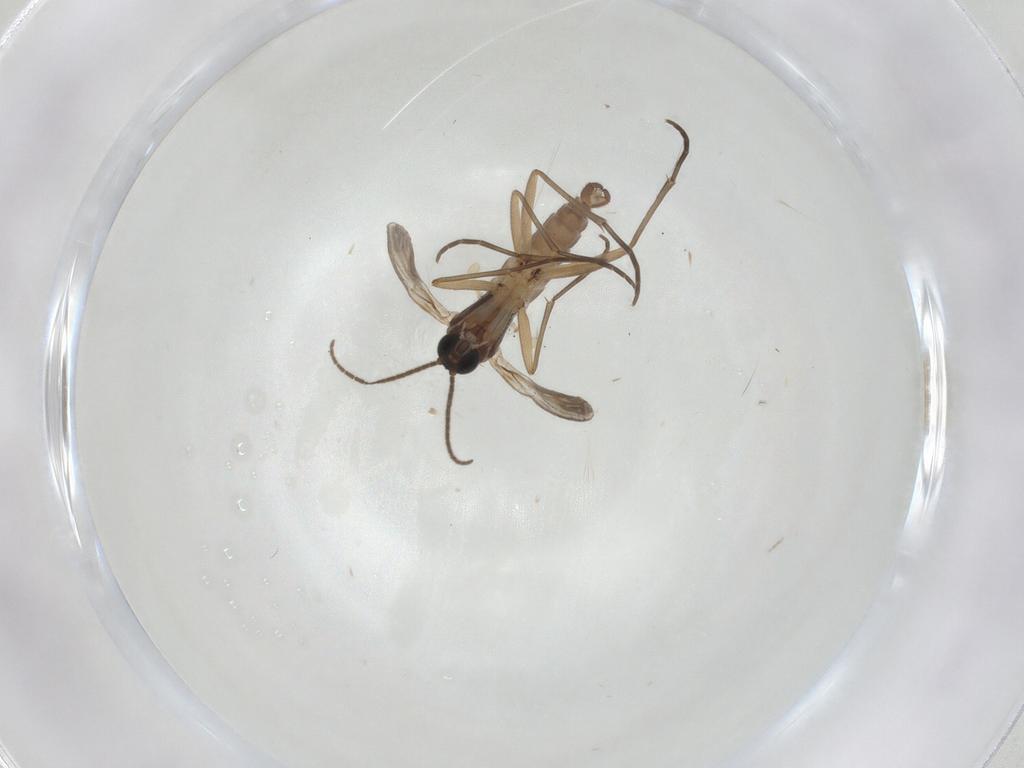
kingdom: Animalia
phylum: Arthropoda
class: Insecta
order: Diptera
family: Sciaridae
